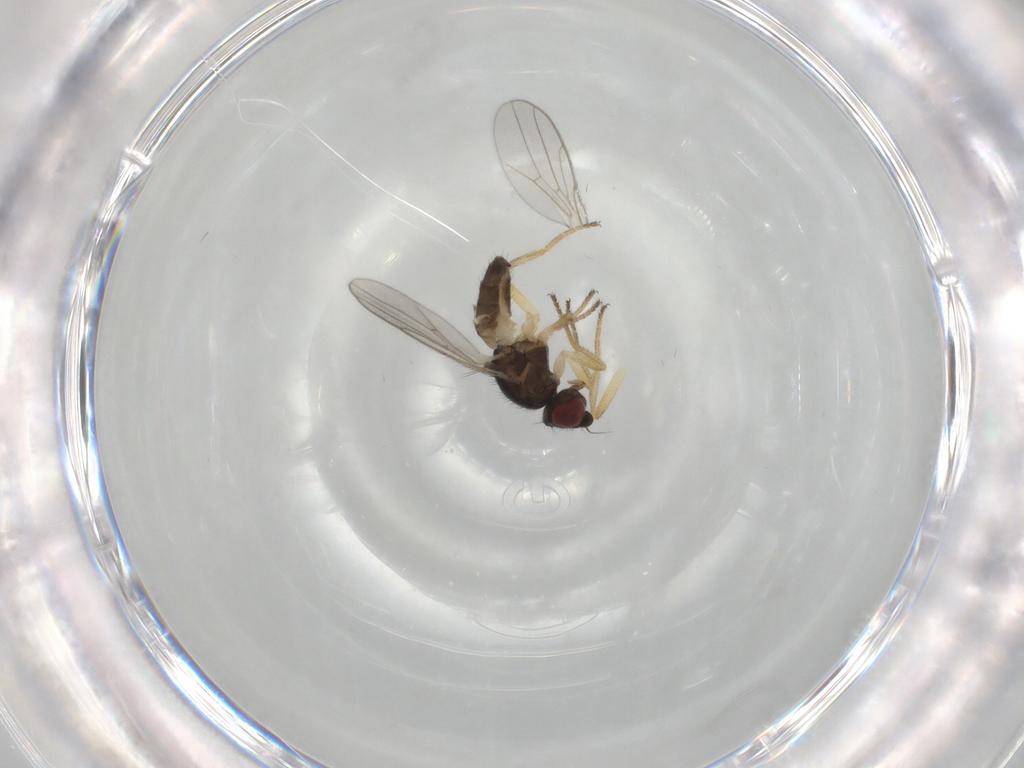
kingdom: Animalia
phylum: Arthropoda
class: Insecta
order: Diptera
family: Chloropidae
